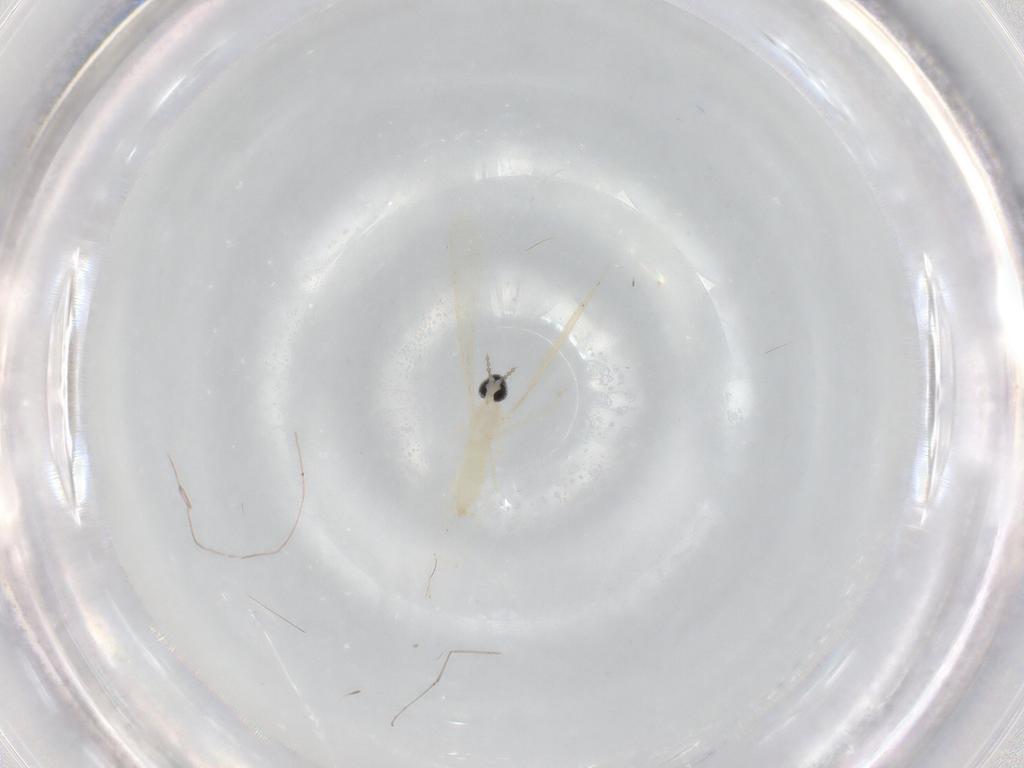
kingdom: Animalia
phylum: Arthropoda
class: Insecta
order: Diptera
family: Cecidomyiidae
